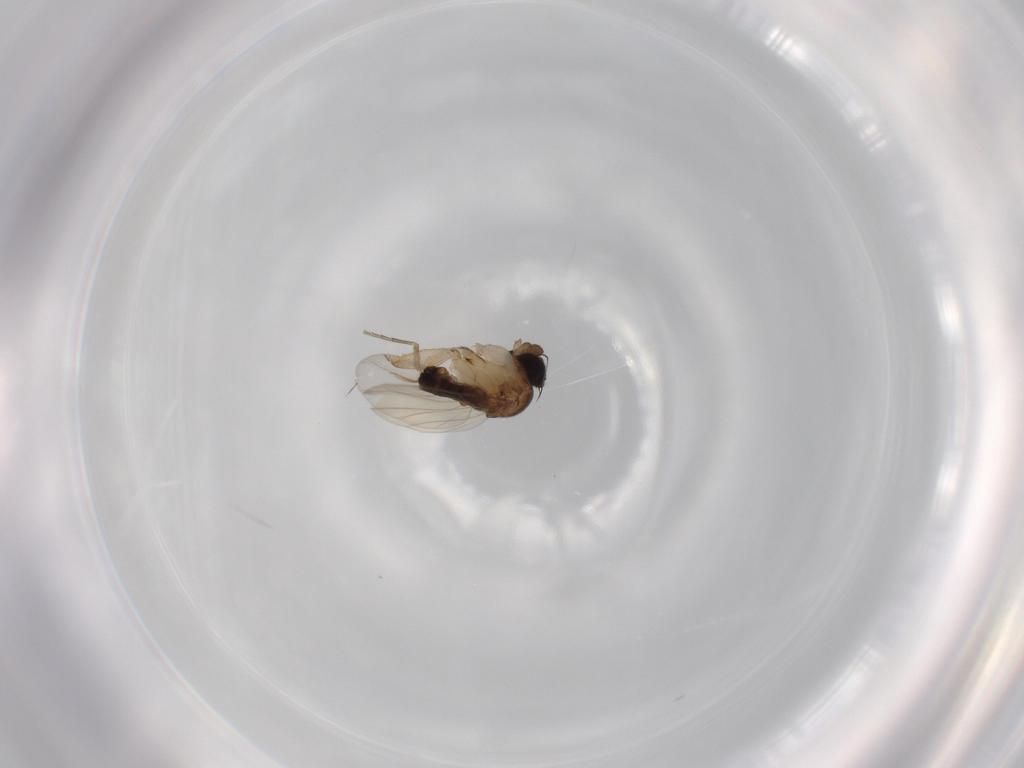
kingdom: Animalia
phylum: Arthropoda
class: Insecta
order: Diptera
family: Phoridae
